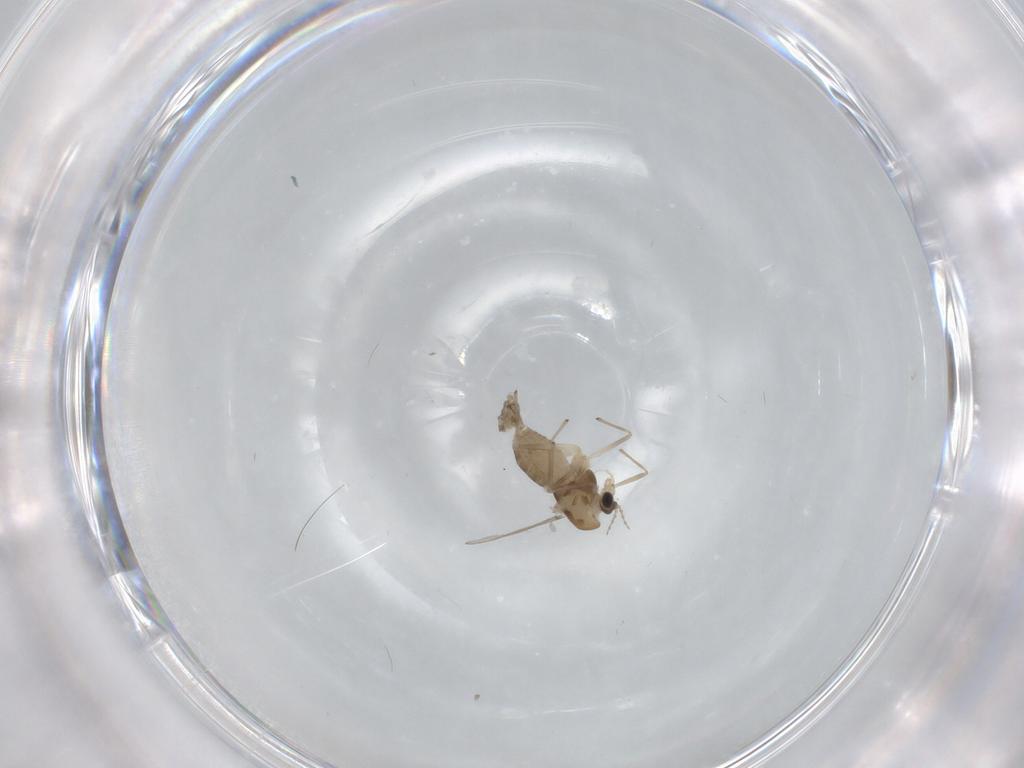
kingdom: Animalia
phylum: Arthropoda
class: Insecta
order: Diptera
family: Chironomidae
